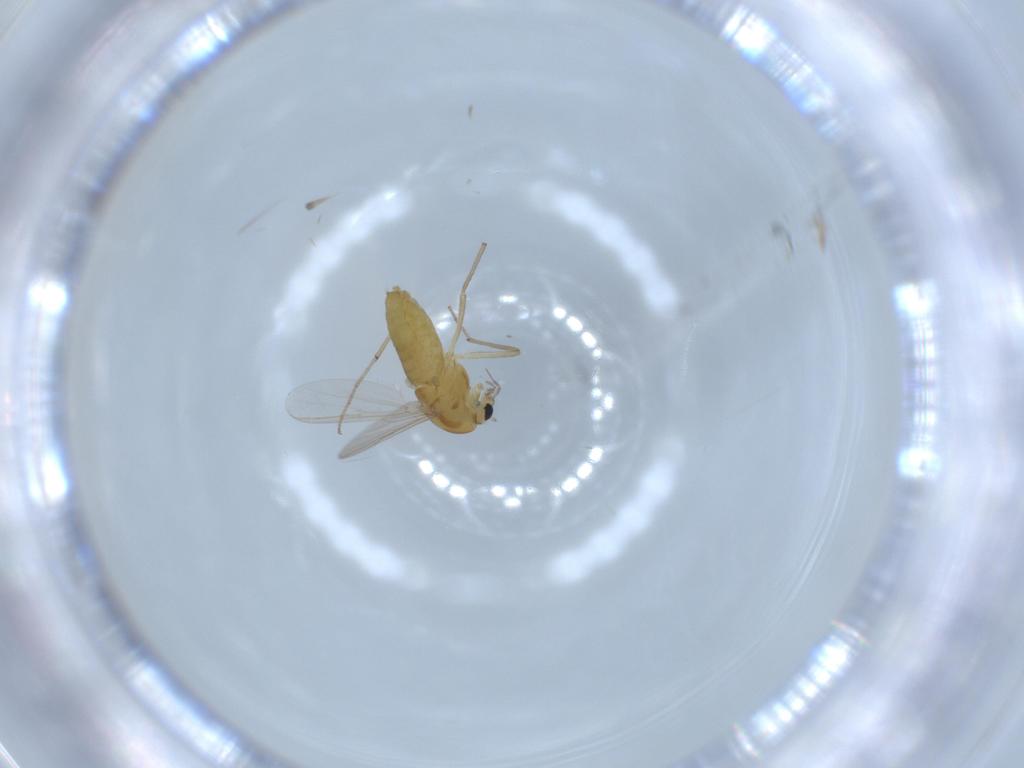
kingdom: Animalia
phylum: Arthropoda
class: Insecta
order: Diptera
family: Chironomidae
